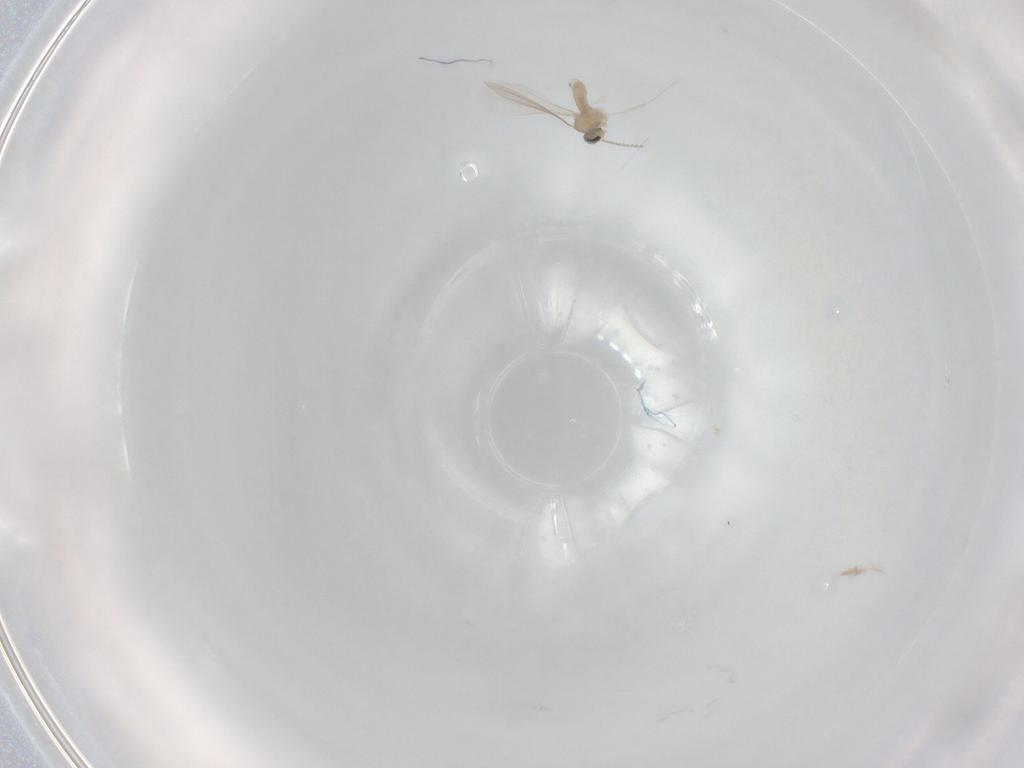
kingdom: Animalia
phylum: Arthropoda
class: Insecta
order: Diptera
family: Cecidomyiidae
